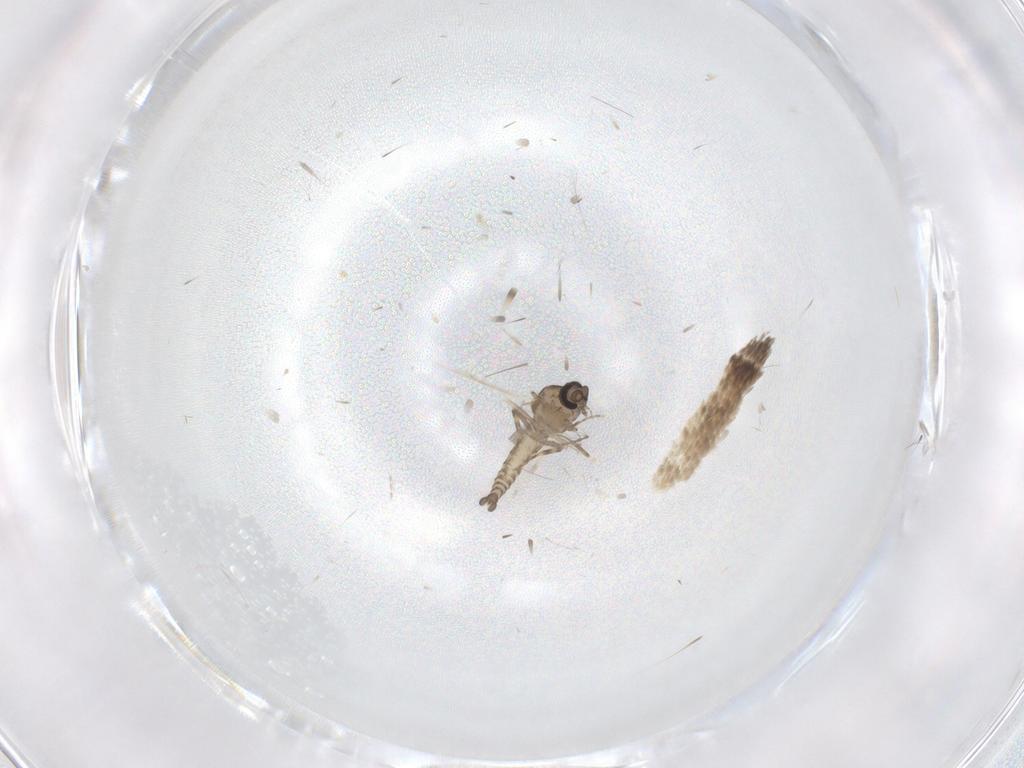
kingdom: Animalia
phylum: Arthropoda
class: Insecta
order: Diptera
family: Ceratopogonidae
